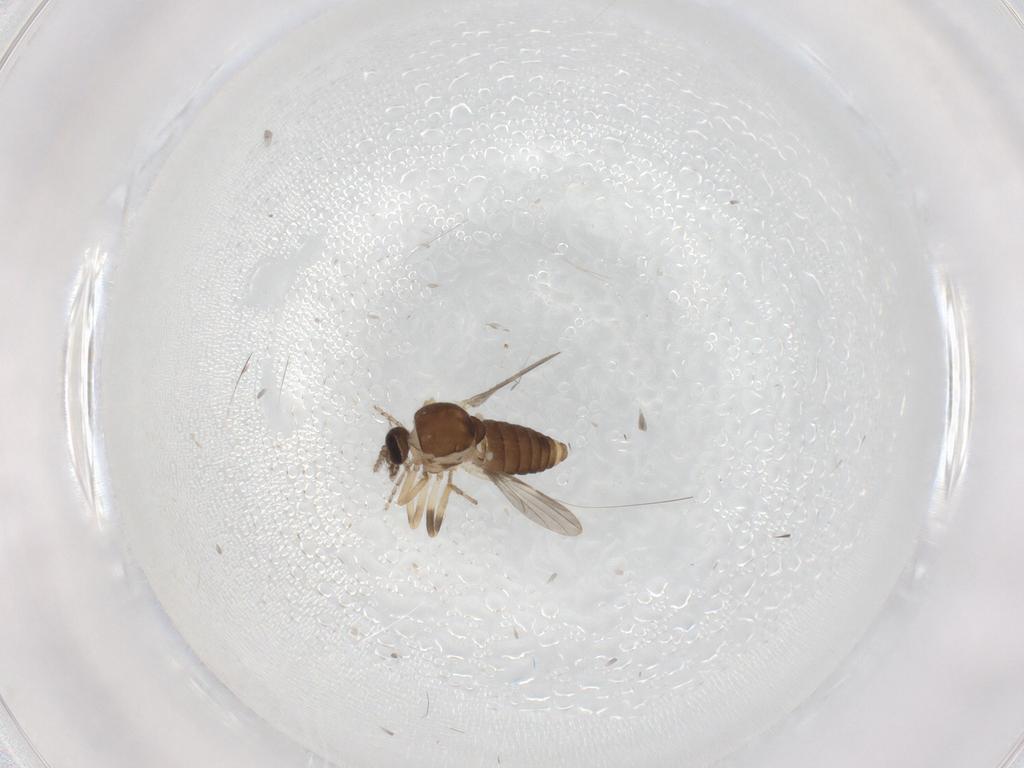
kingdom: Animalia
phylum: Arthropoda
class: Insecta
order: Diptera
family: Ceratopogonidae
